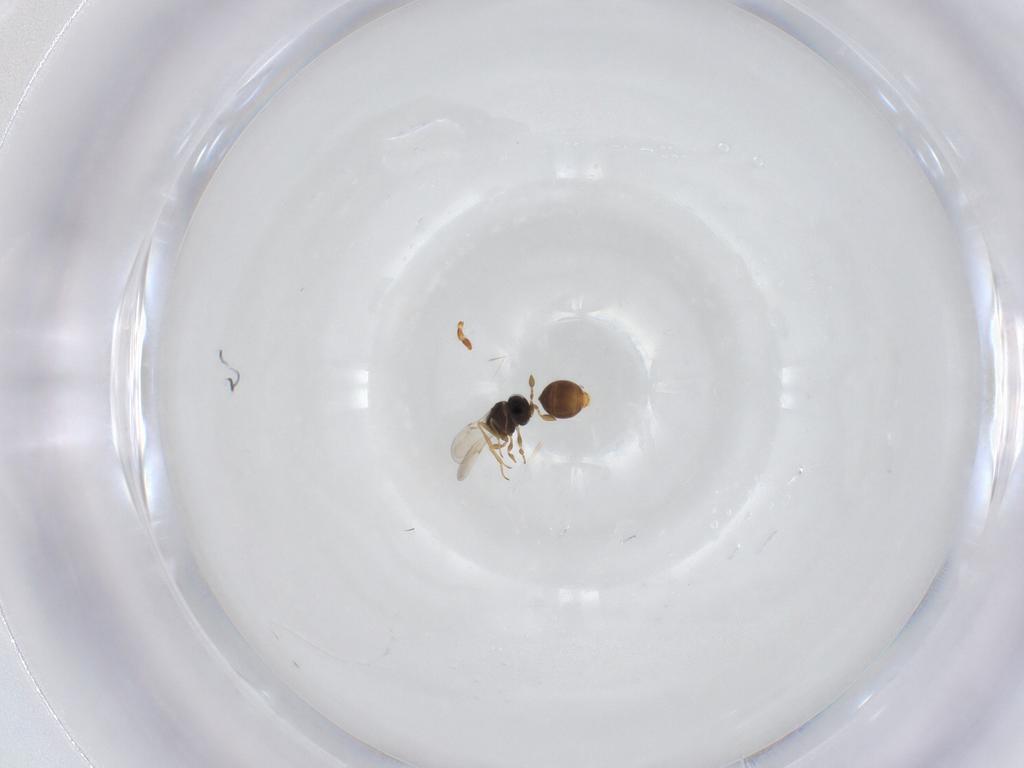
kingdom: Animalia
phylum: Arthropoda
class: Insecta
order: Hymenoptera
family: Scelionidae
